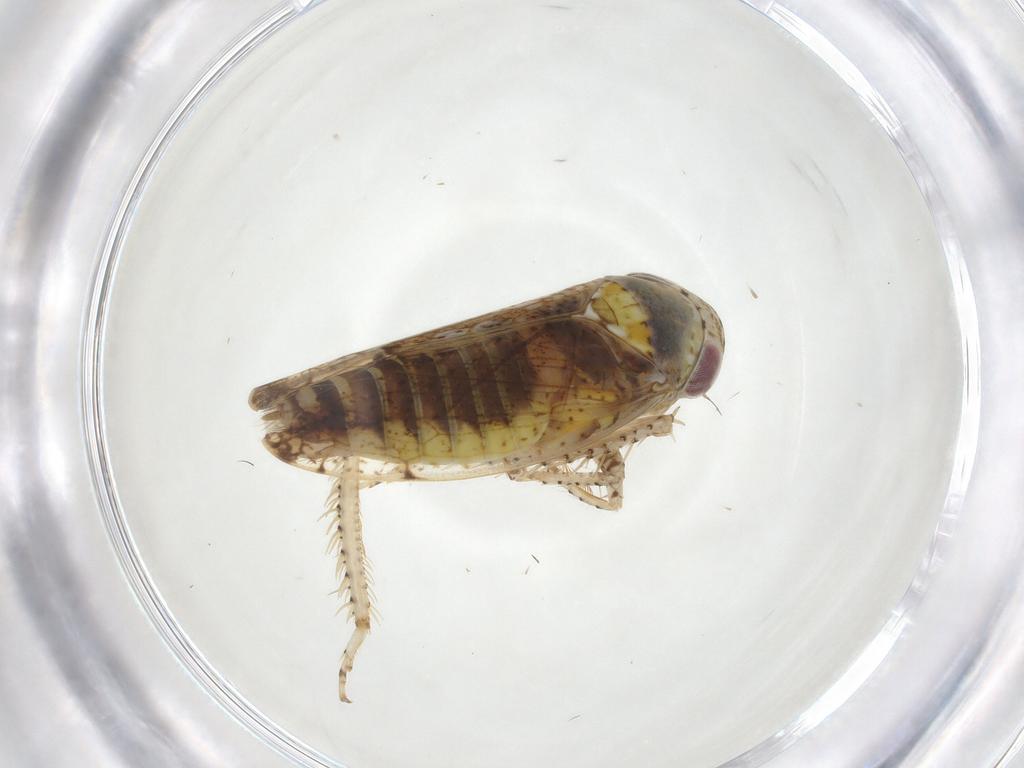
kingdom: Animalia
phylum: Arthropoda
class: Insecta
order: Hemiptera
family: Cicadellidae
